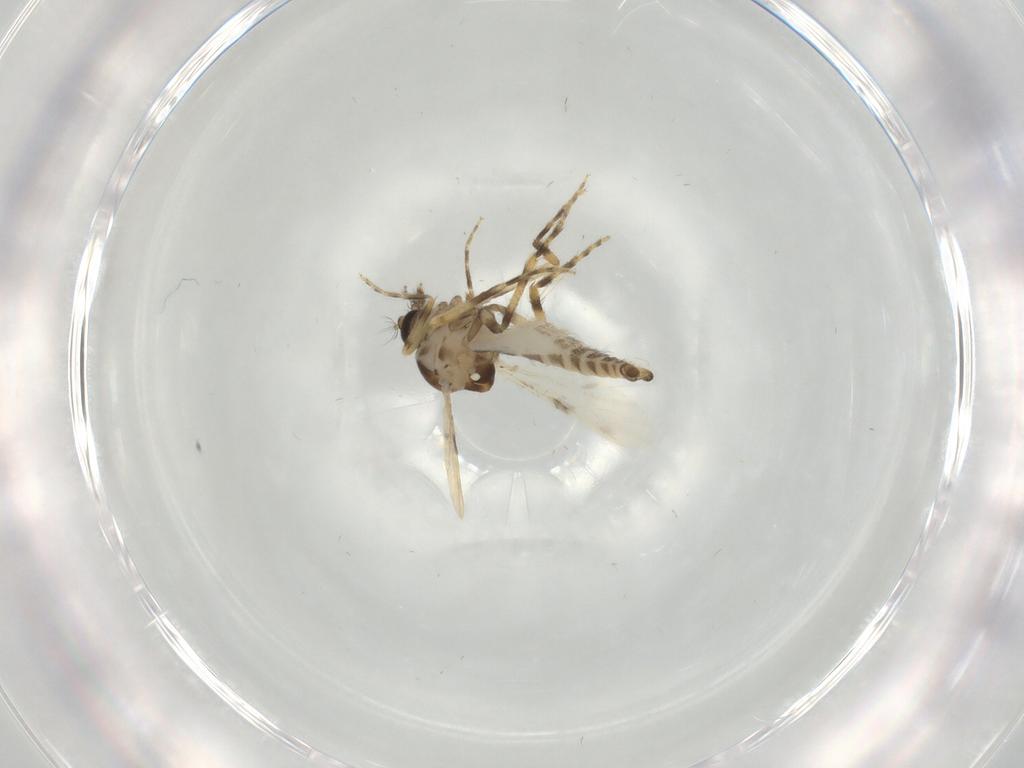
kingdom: Animalia
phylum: Arthropoda
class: Insecta
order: Diptera
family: Ceratopogonidae
